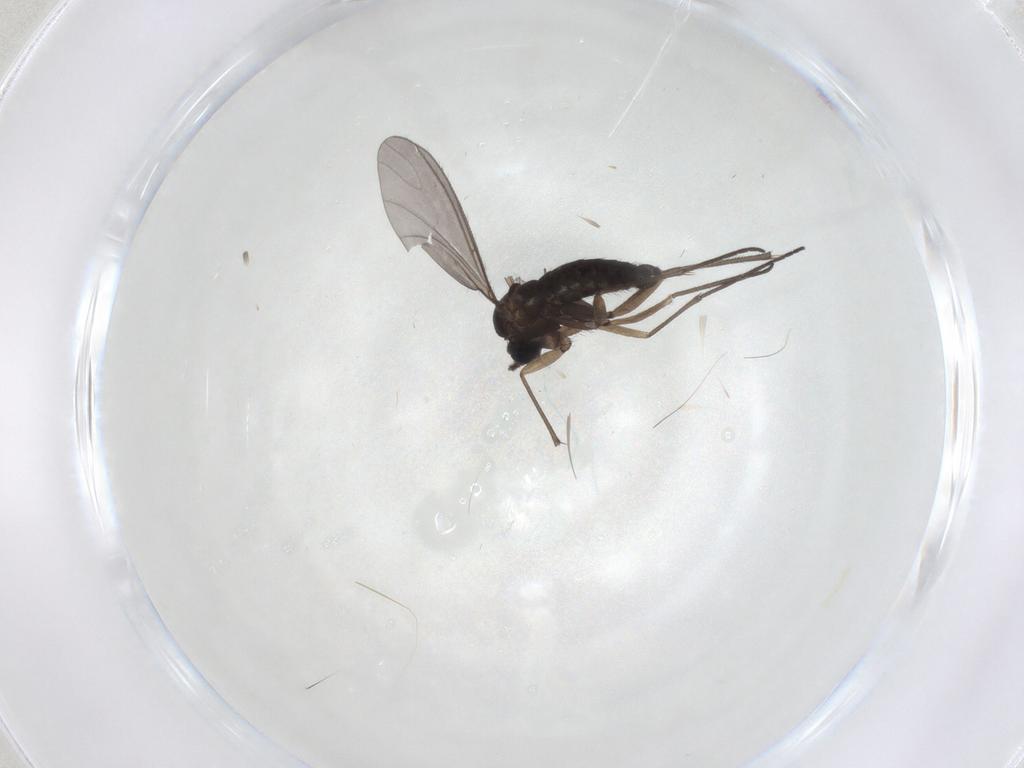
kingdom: Animalia
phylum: Arthropoda
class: Insecta
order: Diptera
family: Sciaridae
